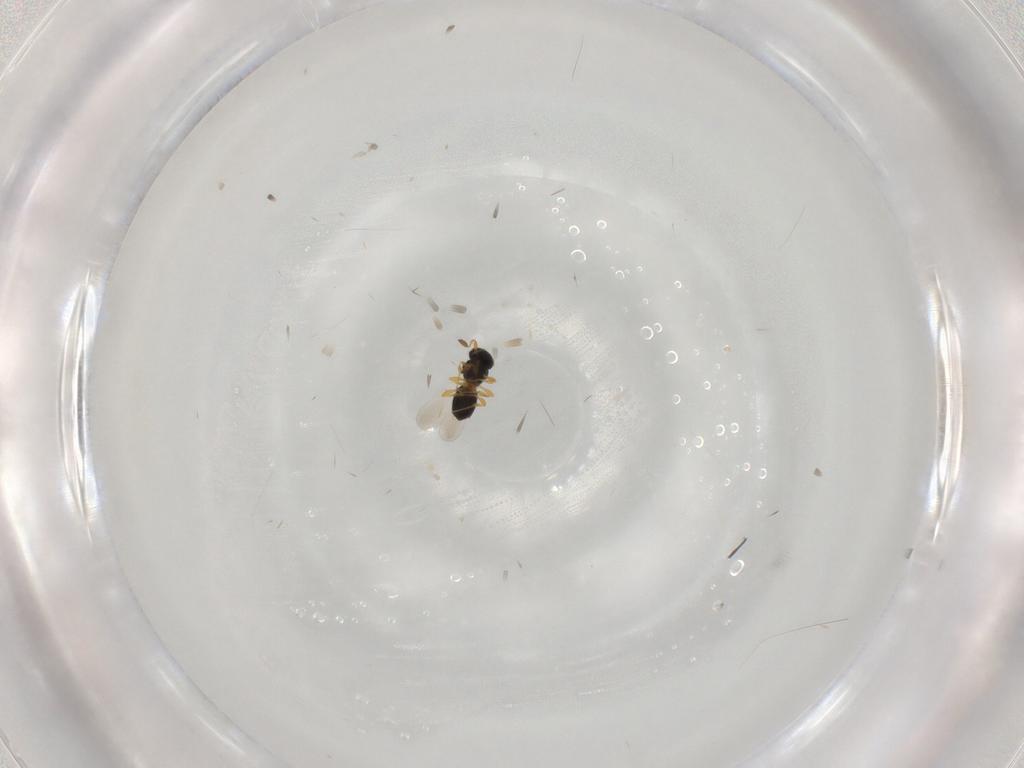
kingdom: Animalia
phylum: Arthropoda
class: Insecta
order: Hymenoptera
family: Platygastridae
